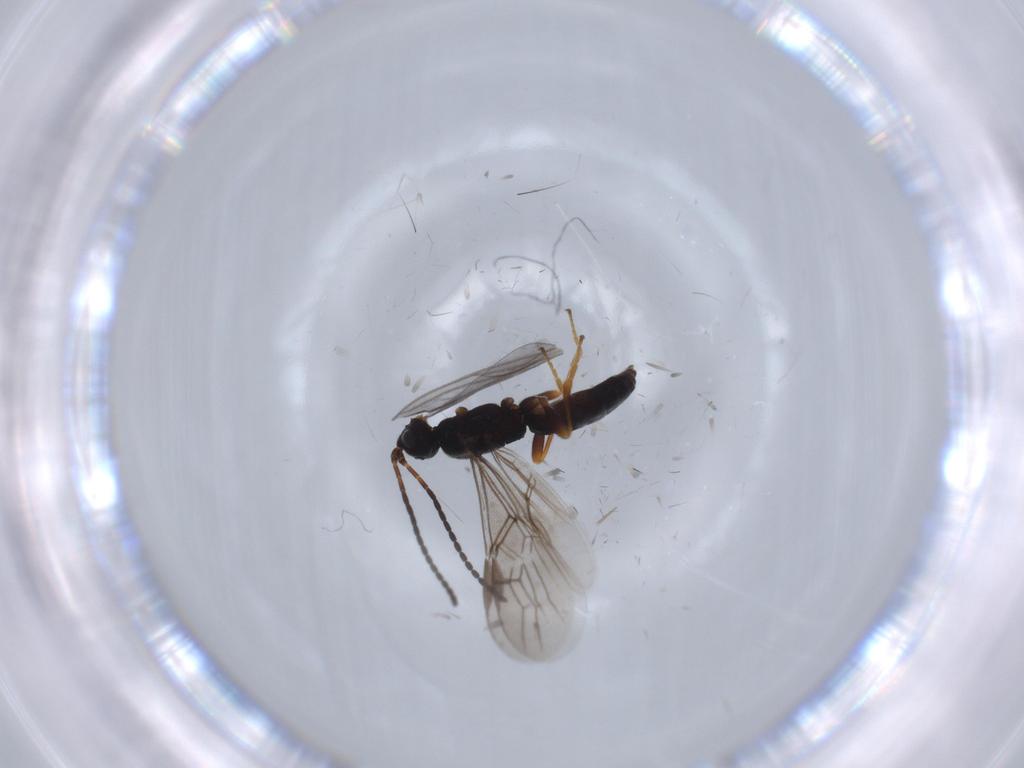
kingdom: Animalia
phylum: Arthropoda
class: Insecta
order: Hymenoptera
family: Braconidae
